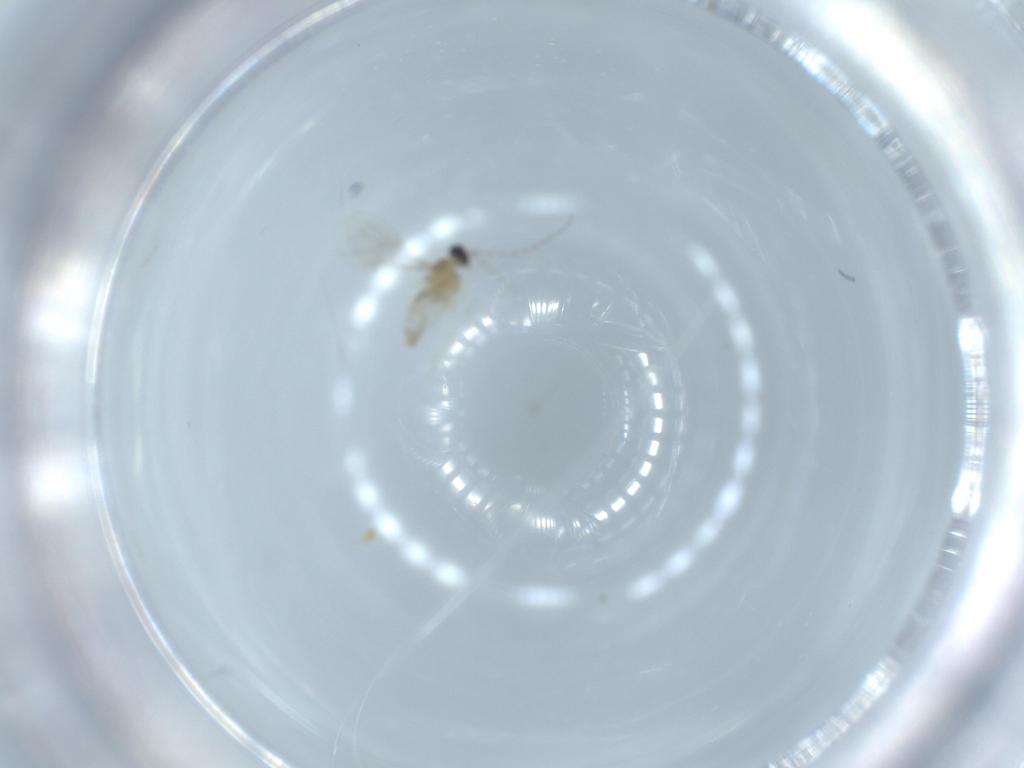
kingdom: Animalia
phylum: Arthropoda
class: Insecta
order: Diptera
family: Cecidomyiidae
